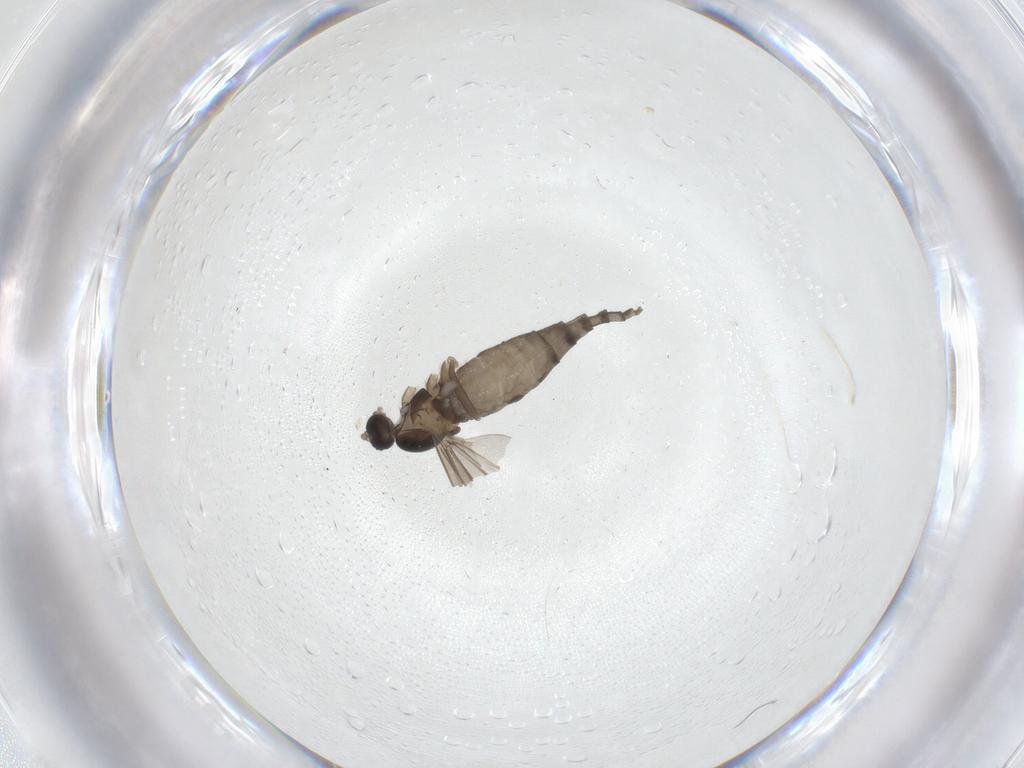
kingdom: Animalia
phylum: Arthropoda
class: Insecta
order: Diptera
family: Cecidomyiidae
